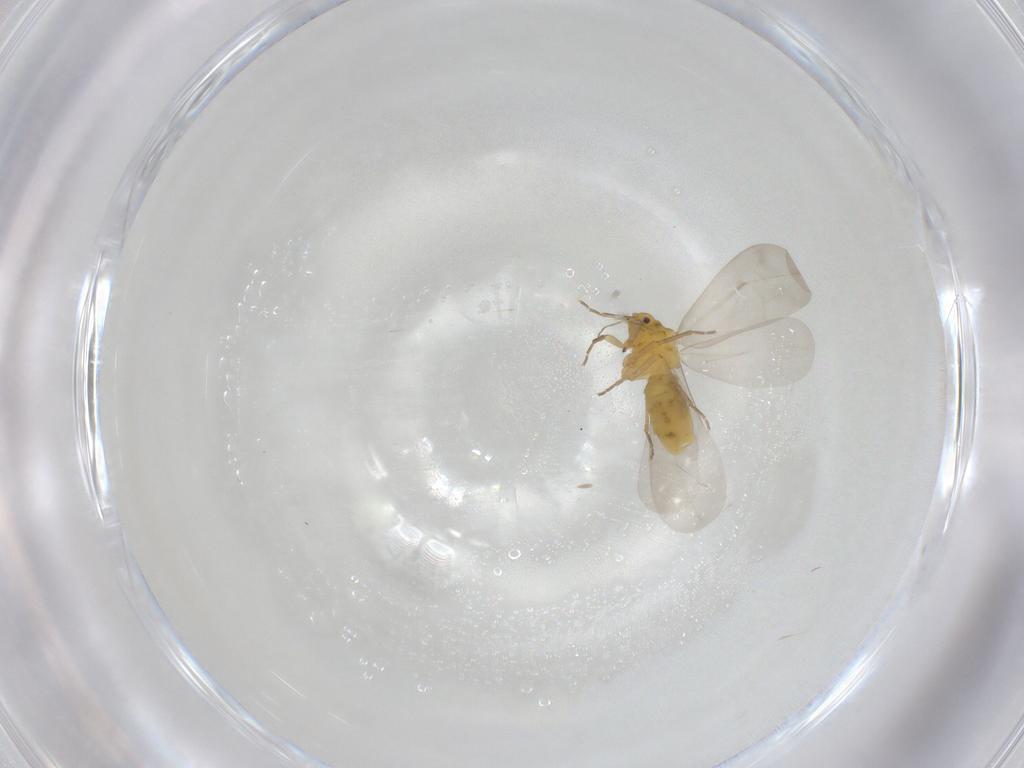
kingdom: Animalia
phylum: Arthropoda
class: Insecta
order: Hemiptera
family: Aleyrodidae
